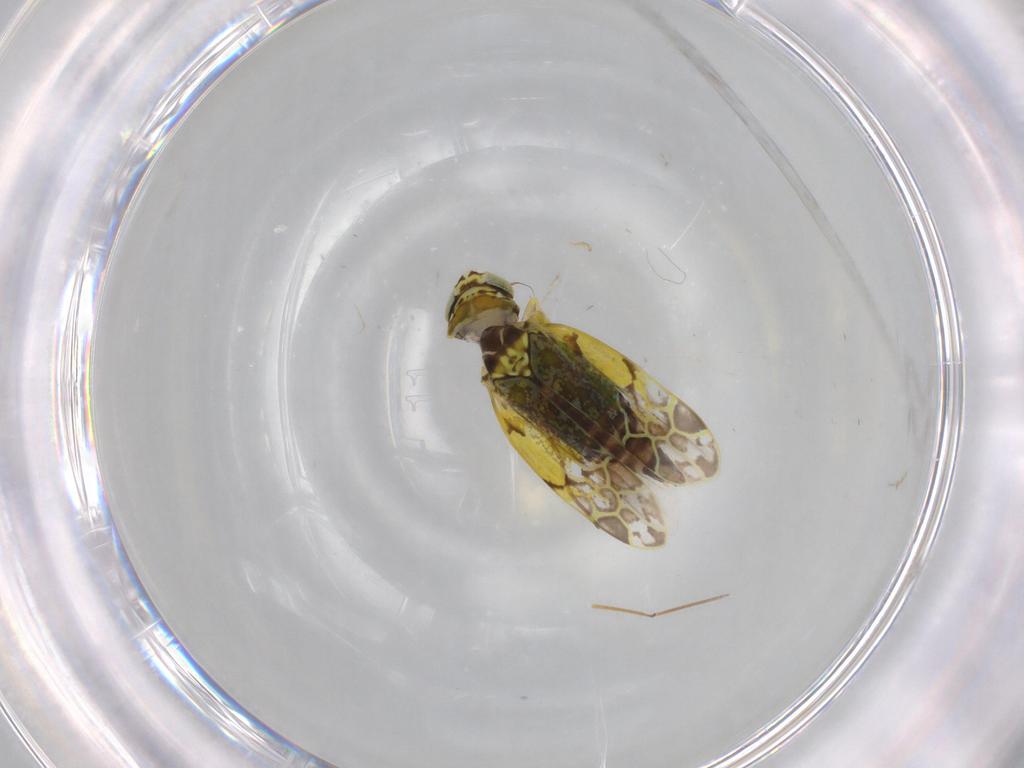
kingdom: Animalia
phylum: Arthropoda
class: Insecta
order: Hemiptera
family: Cicadellidae
